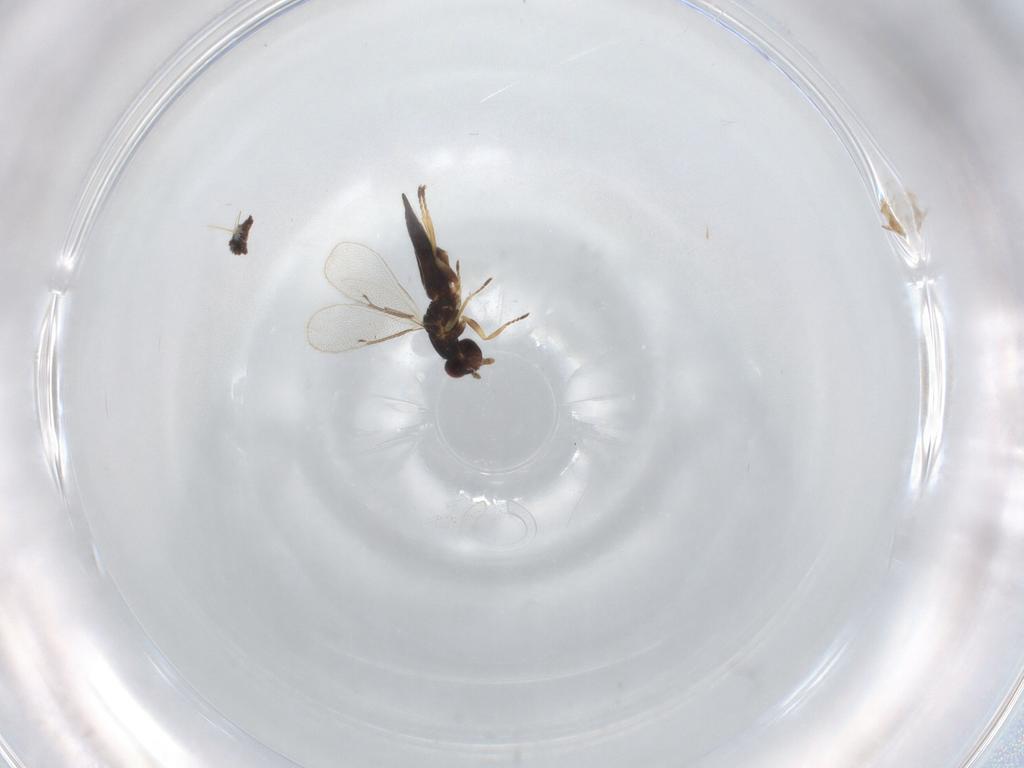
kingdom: Animalia
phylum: Arthropoda
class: Insecta
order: Hymenoptera
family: Eulophidae
